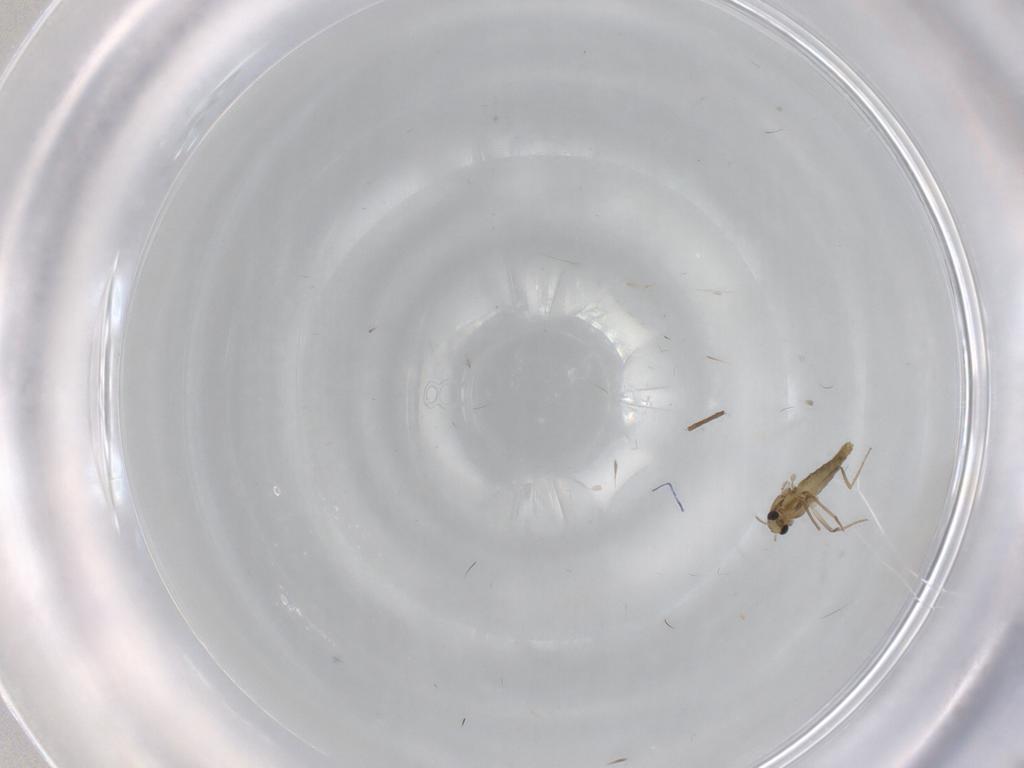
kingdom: Animalia
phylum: Arthropoda
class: Insecta
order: Diptera
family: Chironomidae
